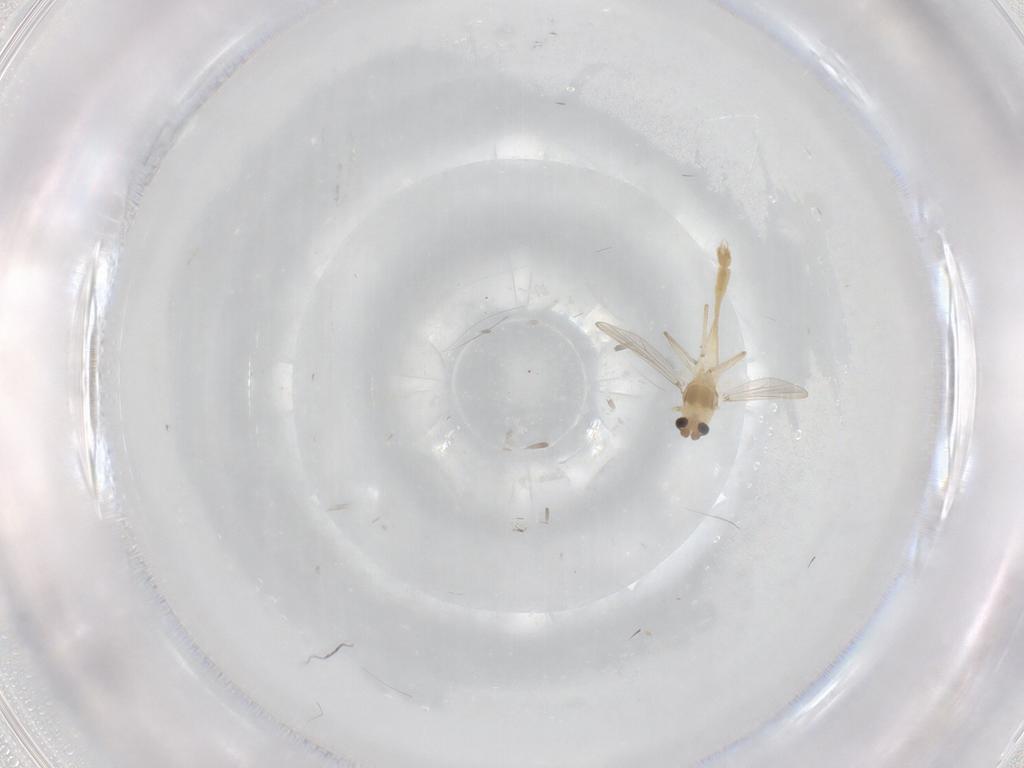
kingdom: Animalia
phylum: Arthropoda
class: Insecta
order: Diptera
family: Chironomidae
